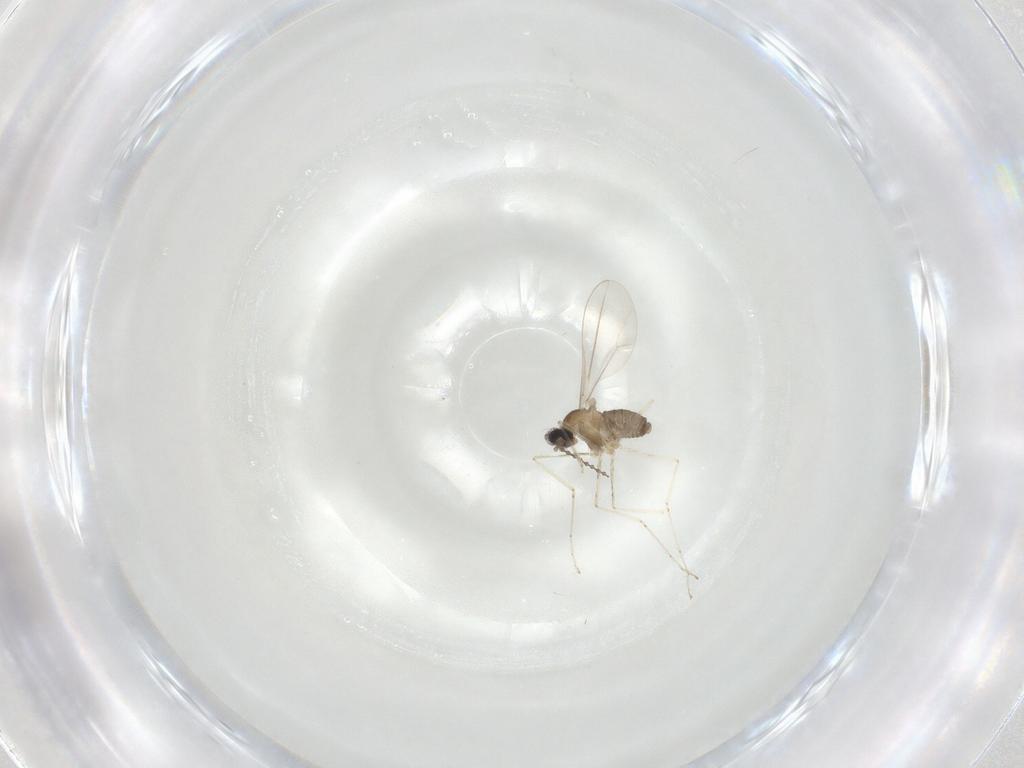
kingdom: Animalia
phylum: Arthropoda
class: Insecta
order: Diptera
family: Cecidomyiidae
